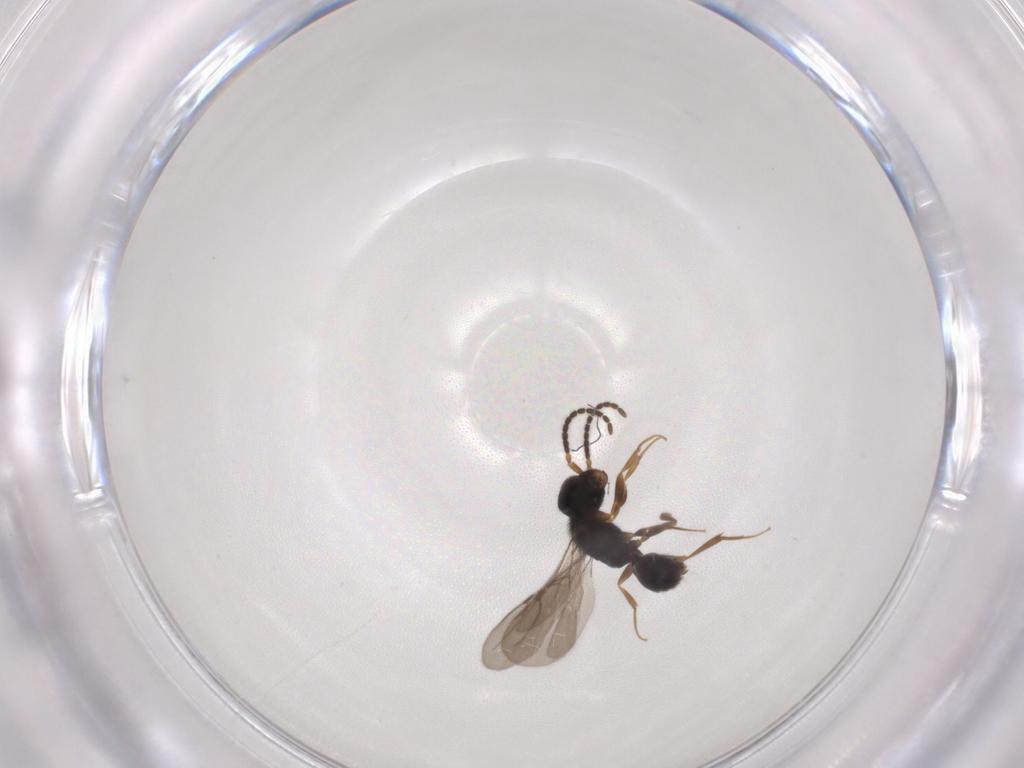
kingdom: Animalia
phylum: Arthropoda
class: Insecta
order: Hymenoptera
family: Bethylidae
